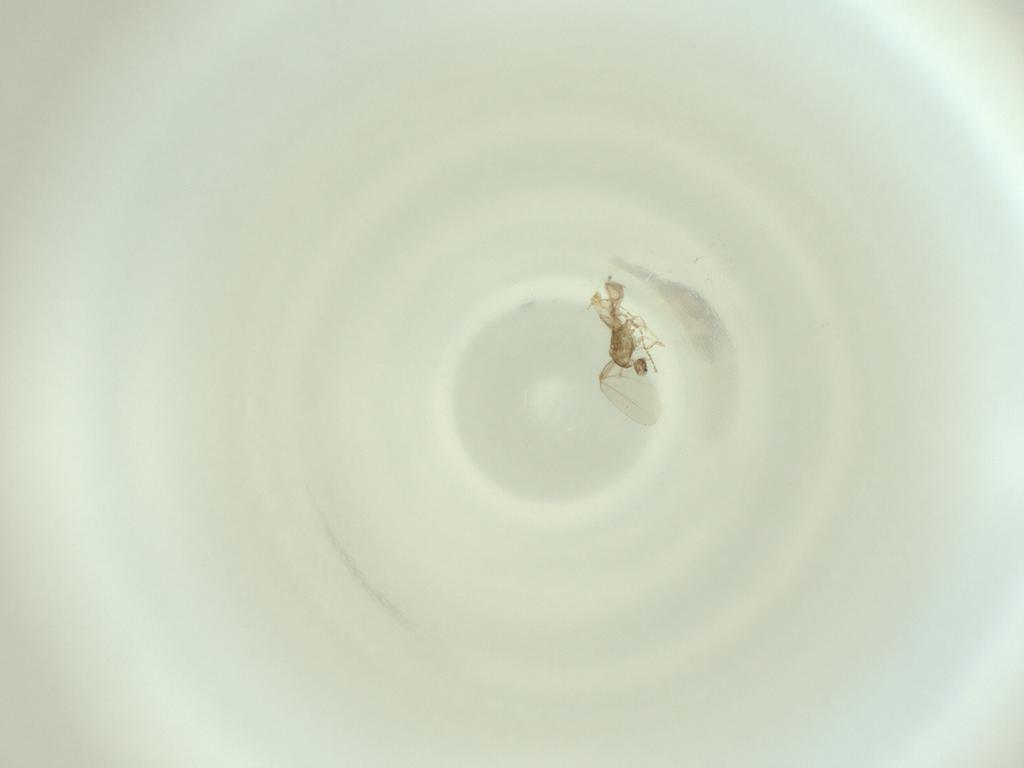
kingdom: Animalia
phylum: Arthropoda
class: Insecta
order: Diptera
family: Cecidomyiidae
